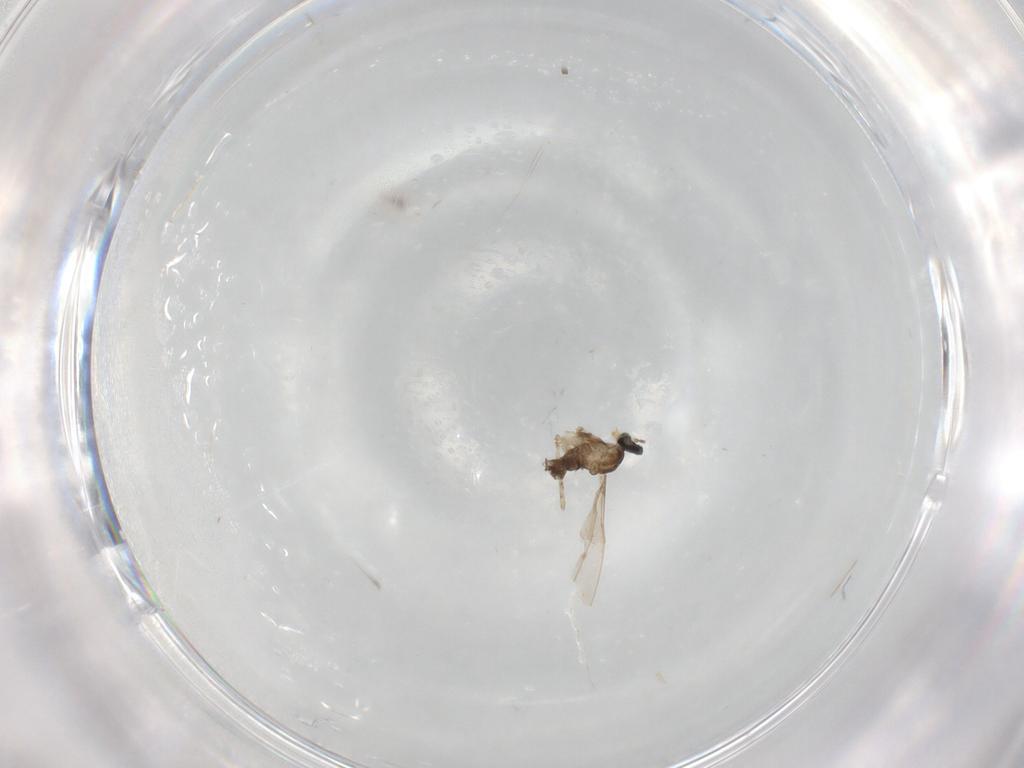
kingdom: Animalia
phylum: Arthropoda
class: Insecta
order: Diptera
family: Cecidomyiidae
